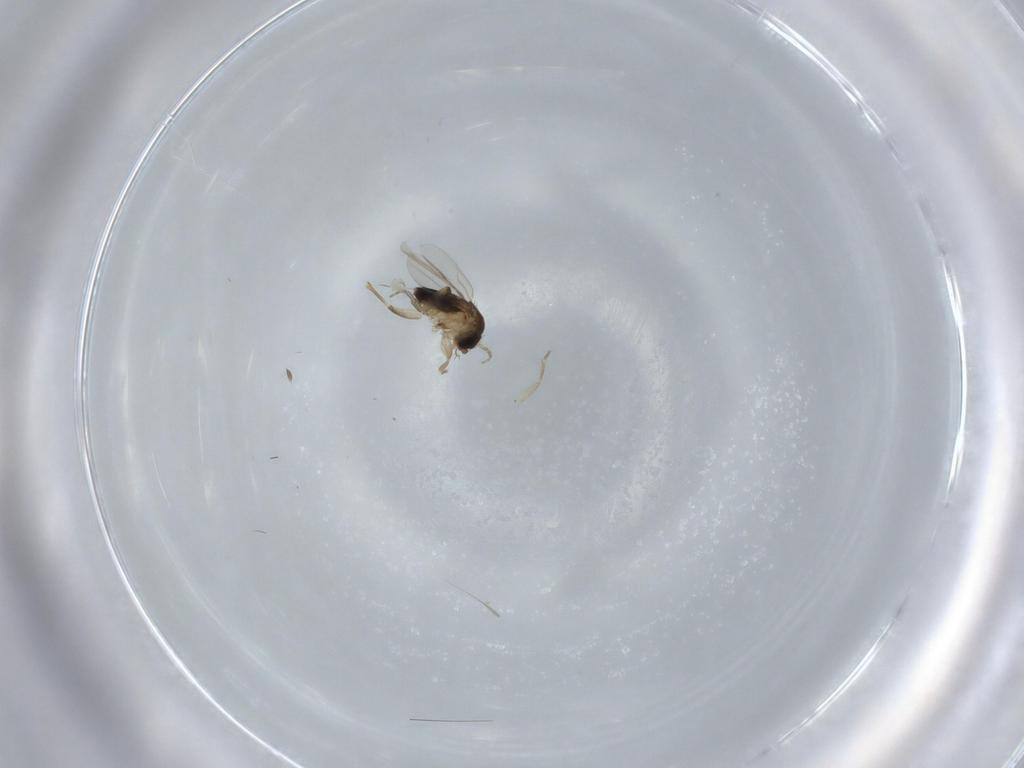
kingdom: Animalia
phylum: Arthropoda
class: Insecta
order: Diptera
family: Phoridae
